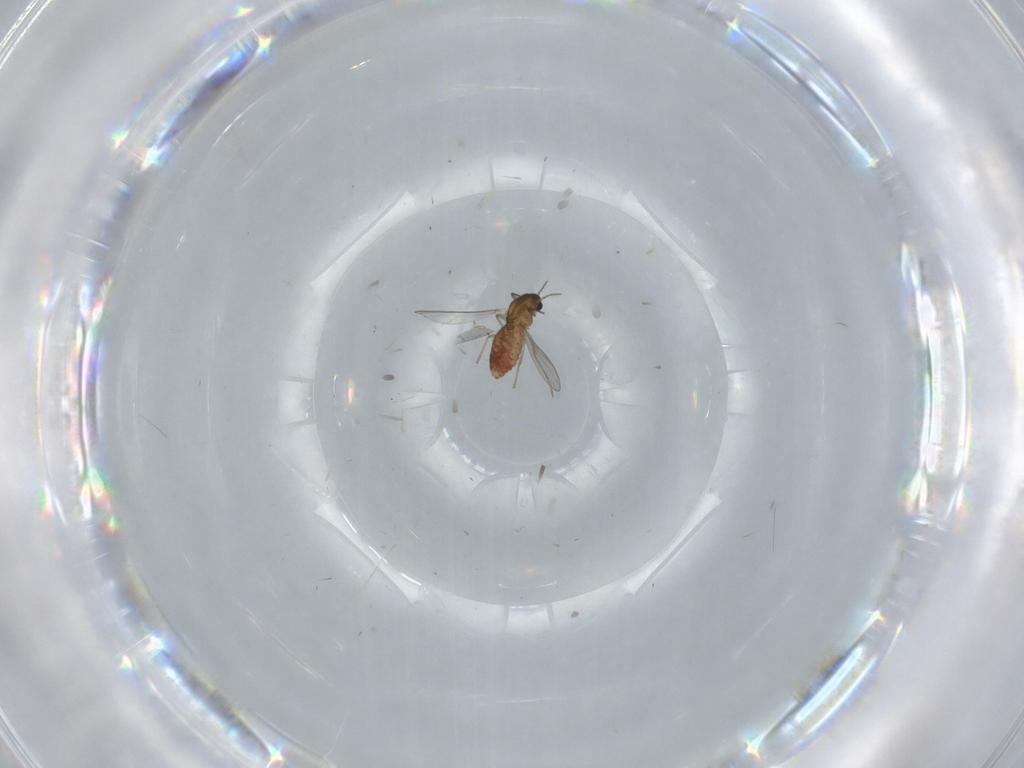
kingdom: Animalia
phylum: Arthropoda
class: Insecta
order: Diptera
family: Chironomidae
